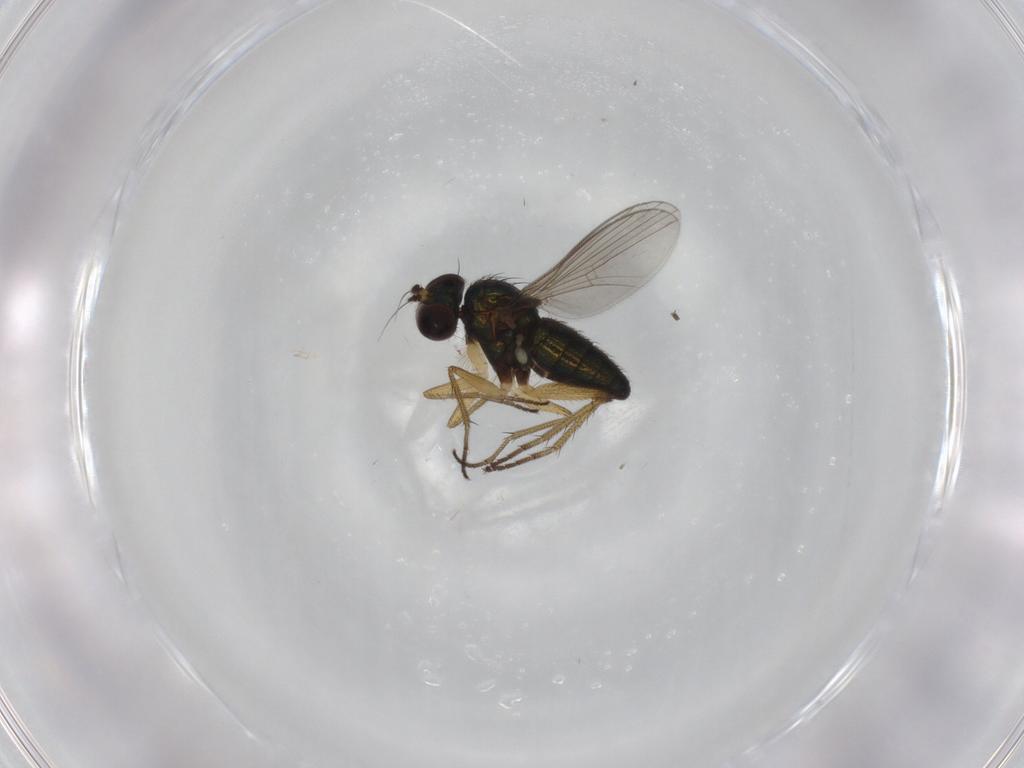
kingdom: Animalia
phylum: Arthropoda
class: Insecta
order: Diptera
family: Dolichopodidae
